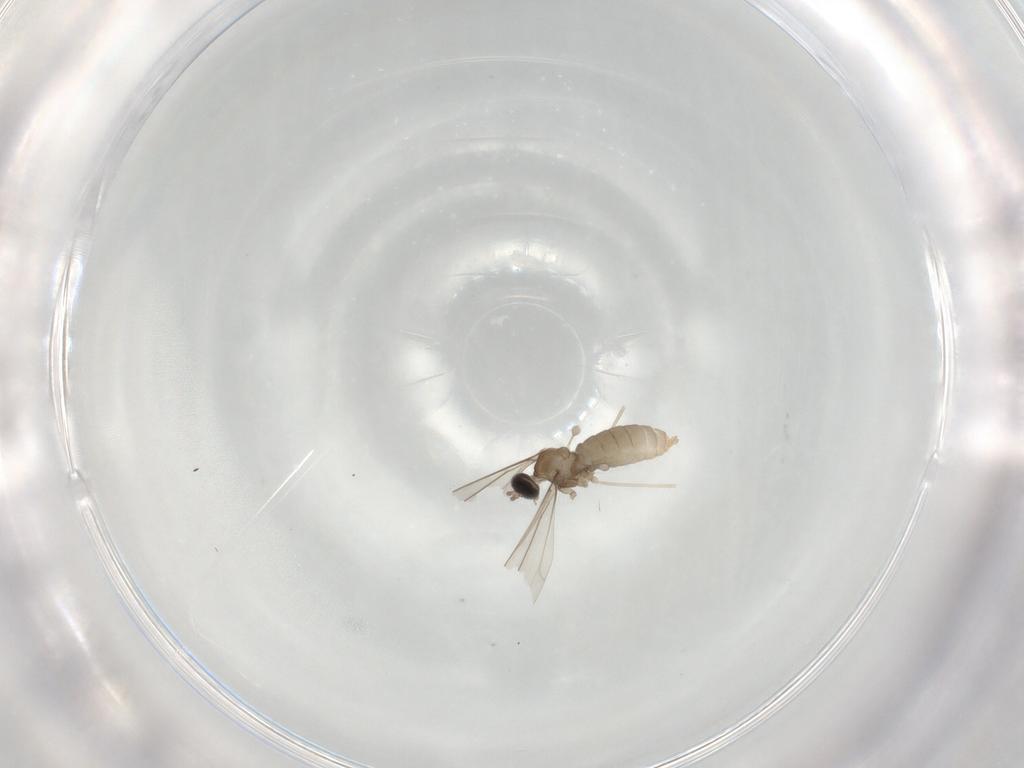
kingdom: Animalia
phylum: Arthropoda
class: Insecta
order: Diptera
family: Cecidomyiidae
